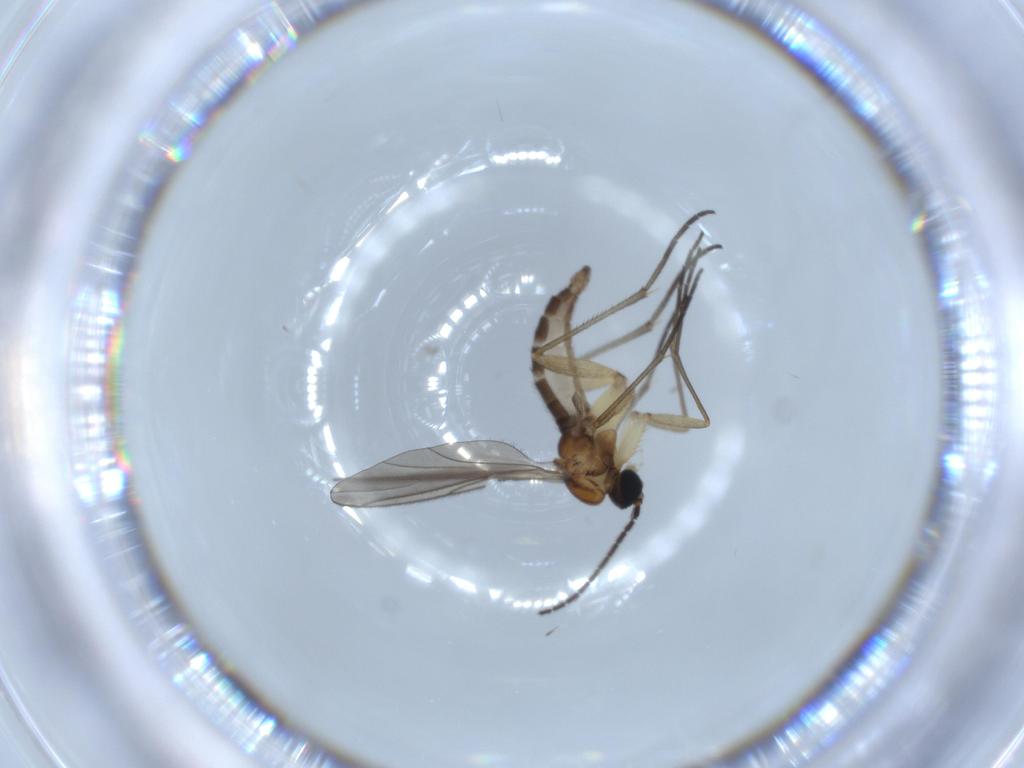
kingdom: Animalia
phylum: Arthropoda
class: Insecta
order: Diptera
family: Sciaridae
